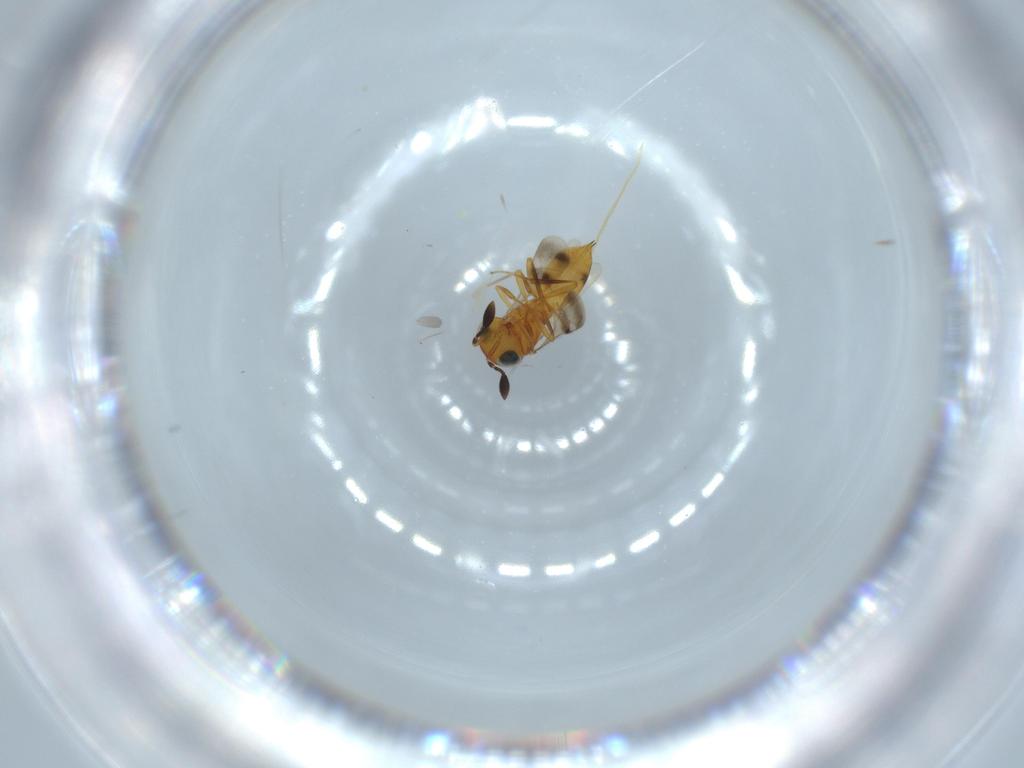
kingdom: Animalia
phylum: Arthropoda
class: Insecta
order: Hymenoptera
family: Scelionidae
